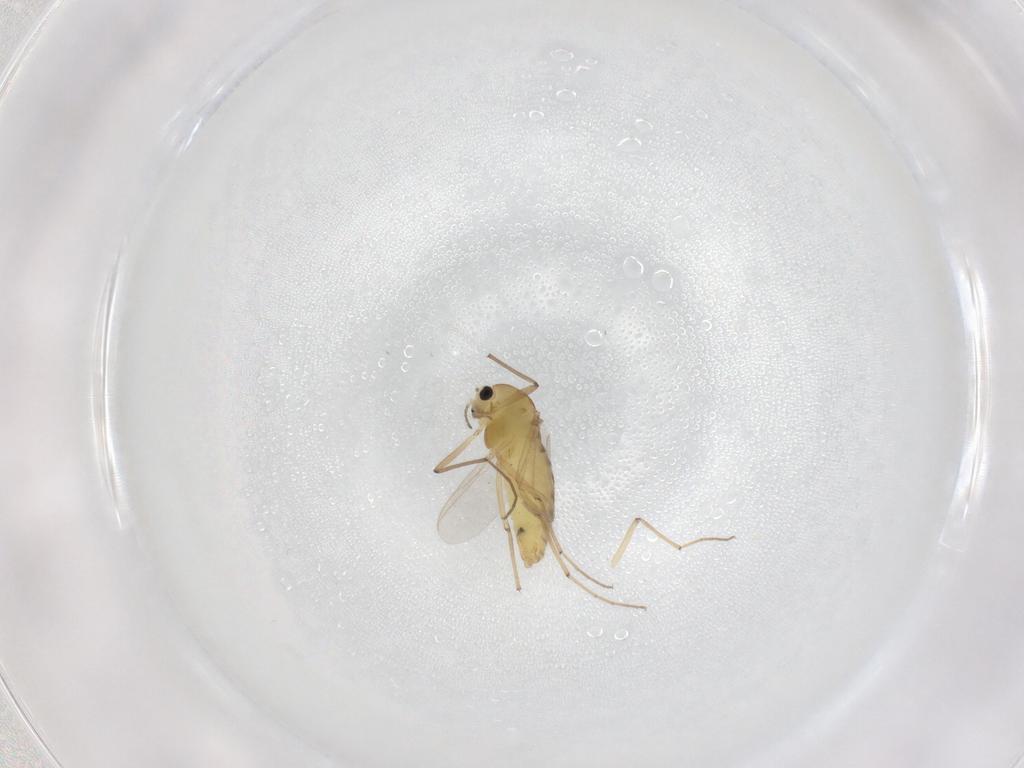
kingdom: Animalia
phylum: Arthropoda
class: Insecta
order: Diptera
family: Chironomidae
